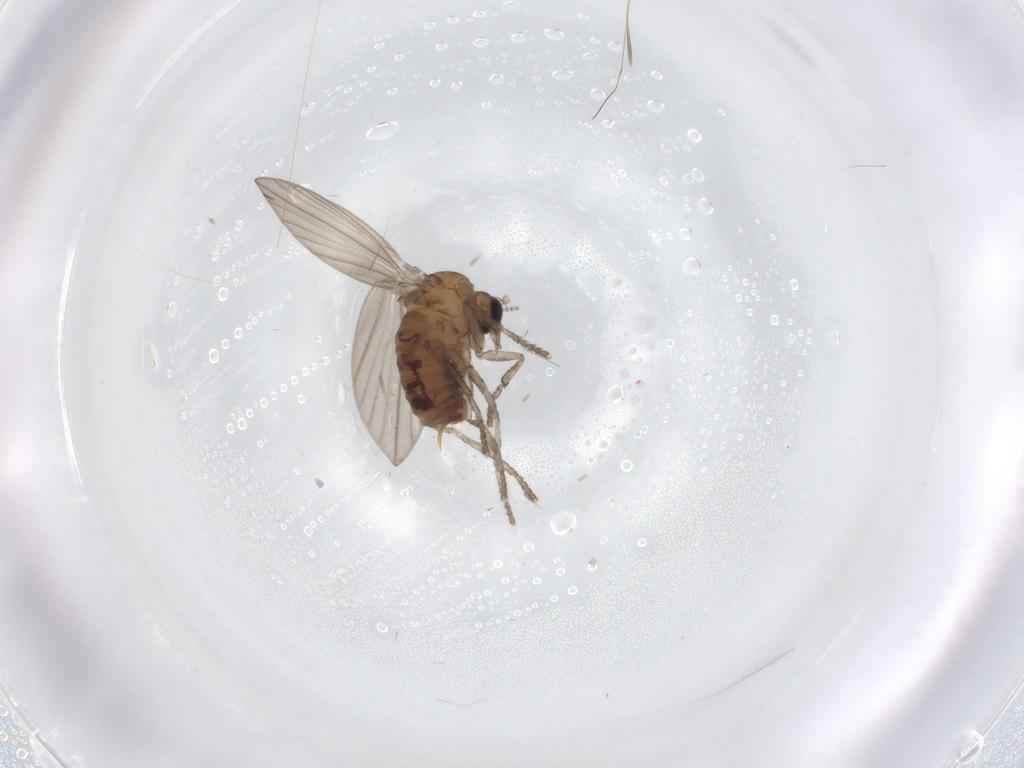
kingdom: Animalia
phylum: Arthropoda
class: Insecta
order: Diptera
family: Psychodidae
